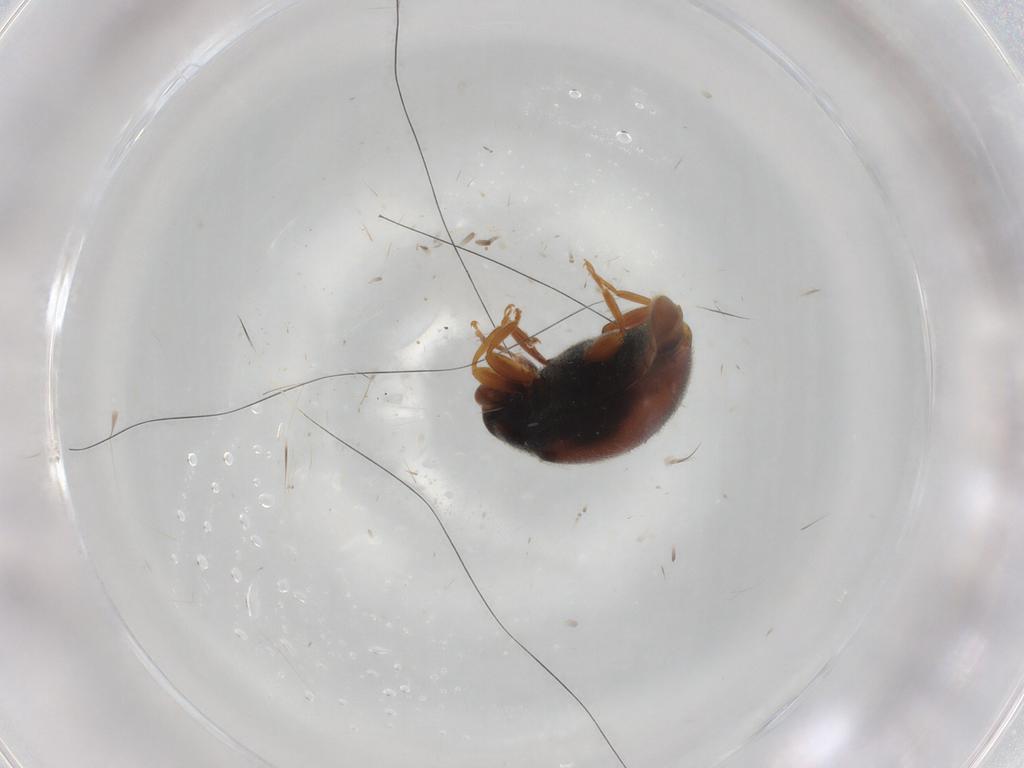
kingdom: Animalia
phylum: Arthropoda
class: Insecta
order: Coleoptera
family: Coccinellidae
